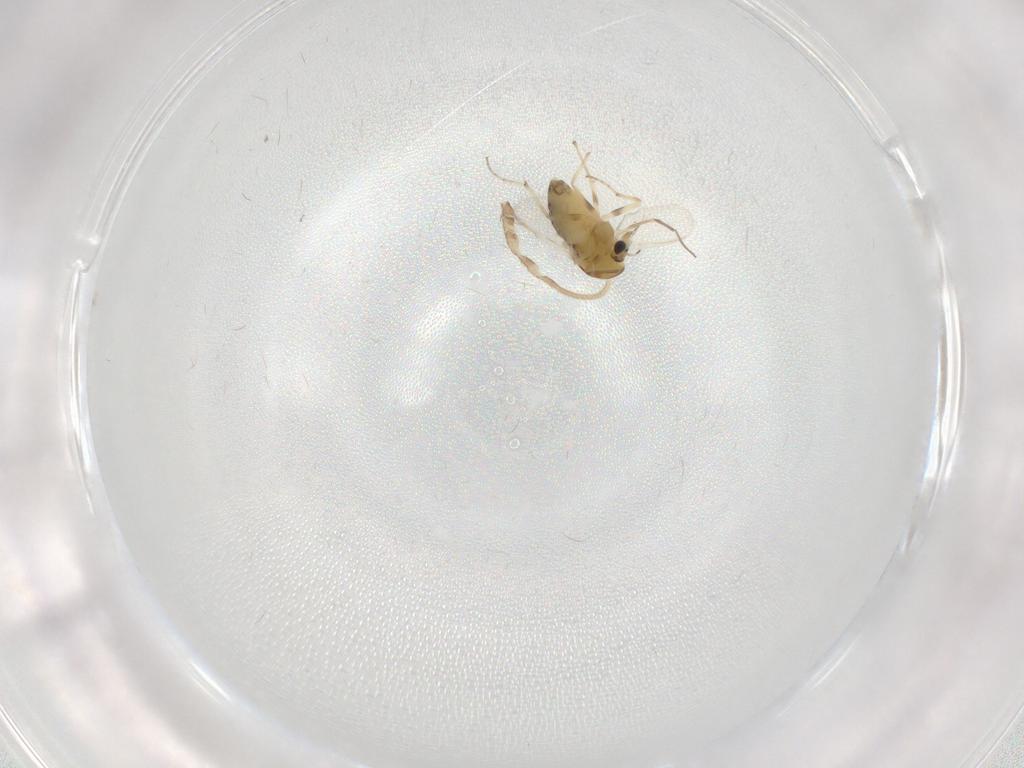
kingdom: Animalia
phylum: Arthropoda
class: Insecta
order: Diptera
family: Chironomidae
